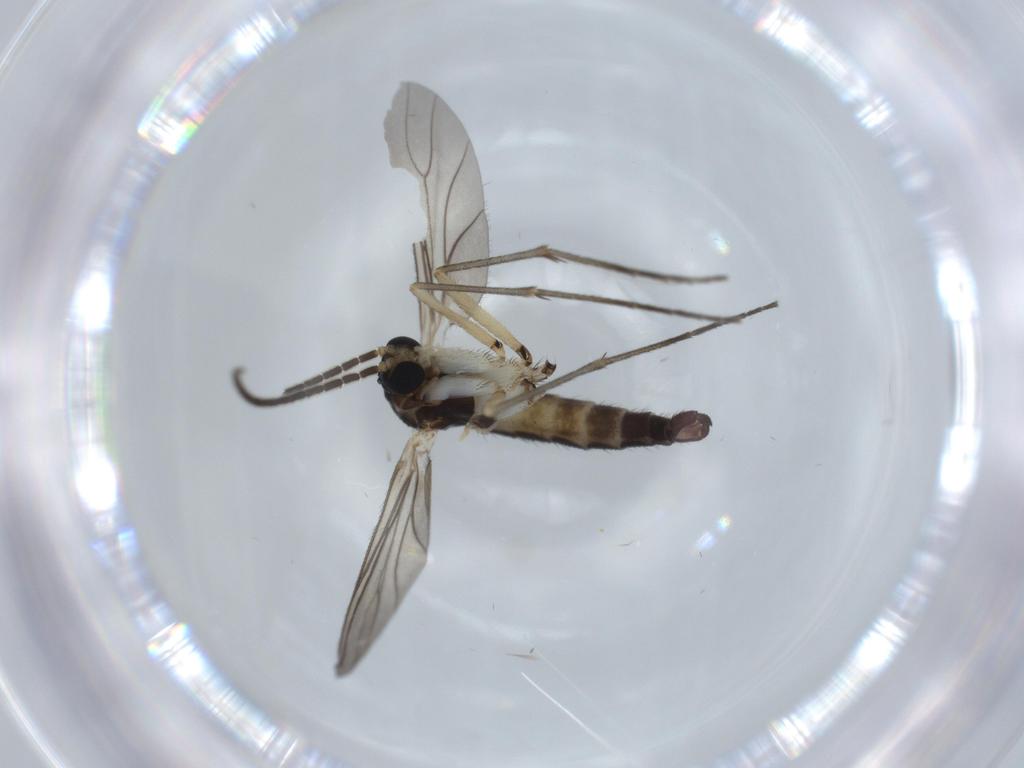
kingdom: Animalia
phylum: Arthropoda
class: Insecta
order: Diptera
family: Sciaridae
